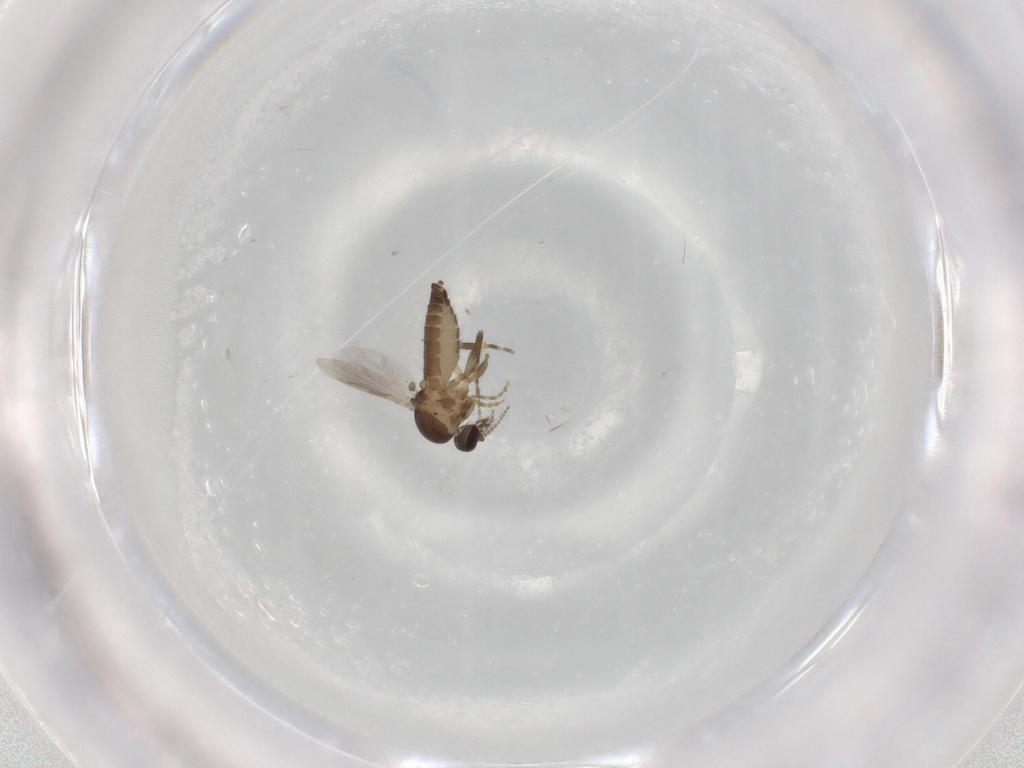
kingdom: Animalia
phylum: Arthropoda
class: Insecta
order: Diptera
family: Ceratopogonidae
